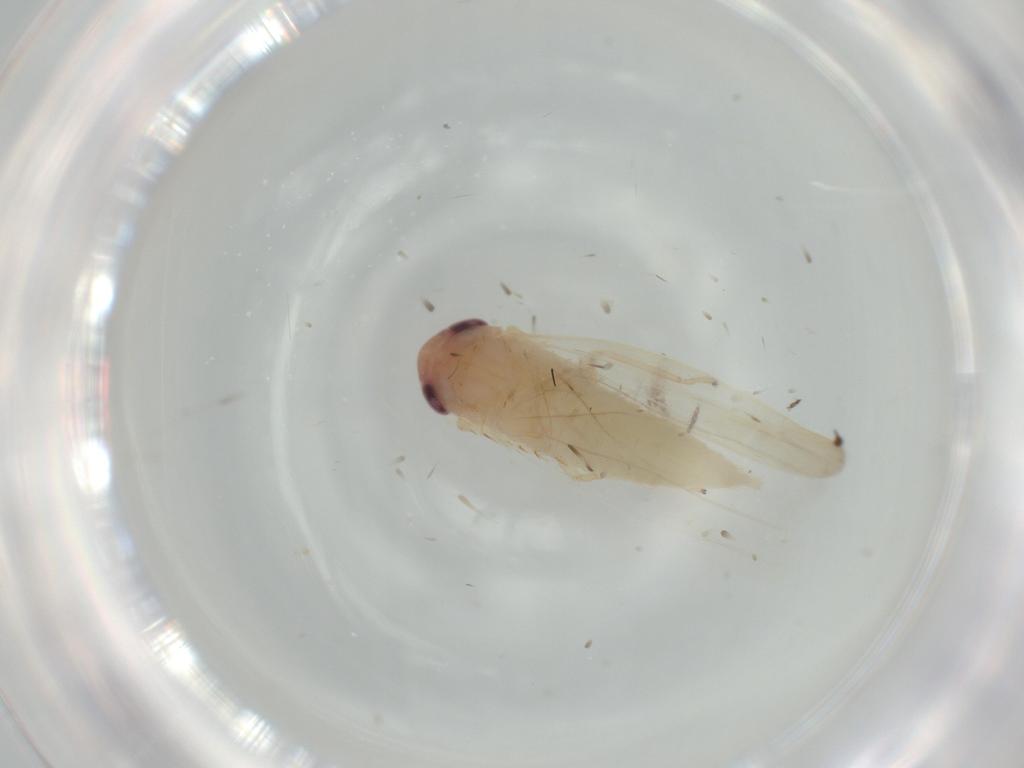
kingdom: Animalia
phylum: Arthropoda
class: Insecta
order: Hemiptera
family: Cicadellidae
